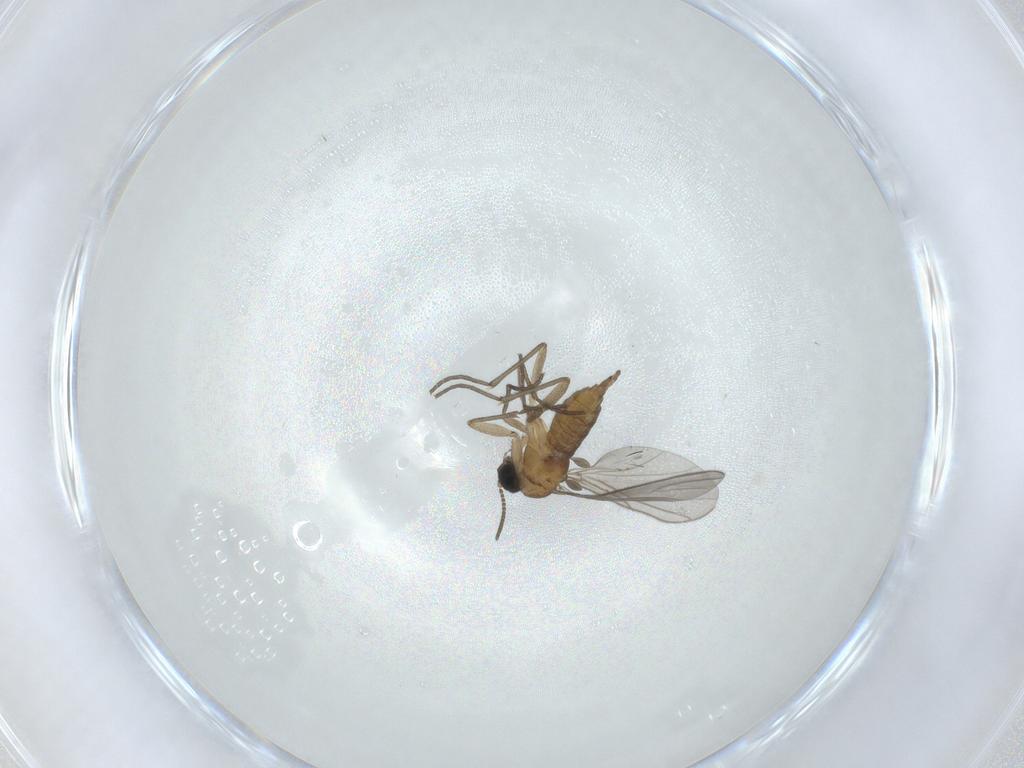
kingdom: Animalia
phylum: Arthropoda
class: Insecta
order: Diptera
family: Sciaridae
